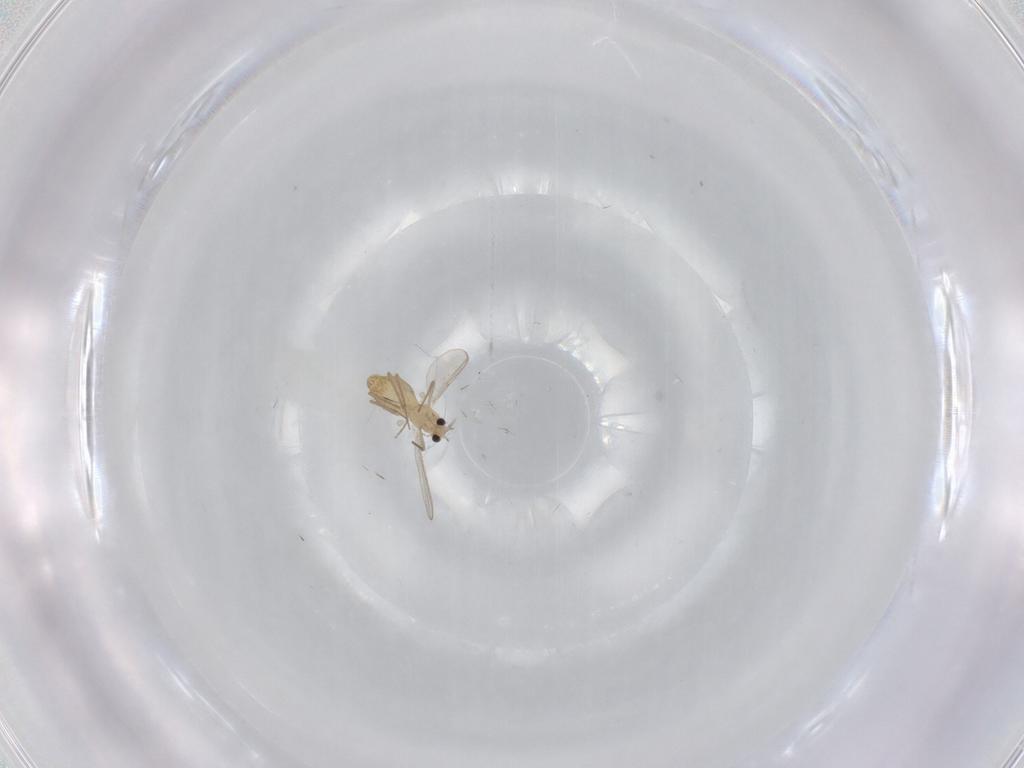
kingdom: Animalia
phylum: Arthropoda
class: Insecta
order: Diptera
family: Chironomidae
